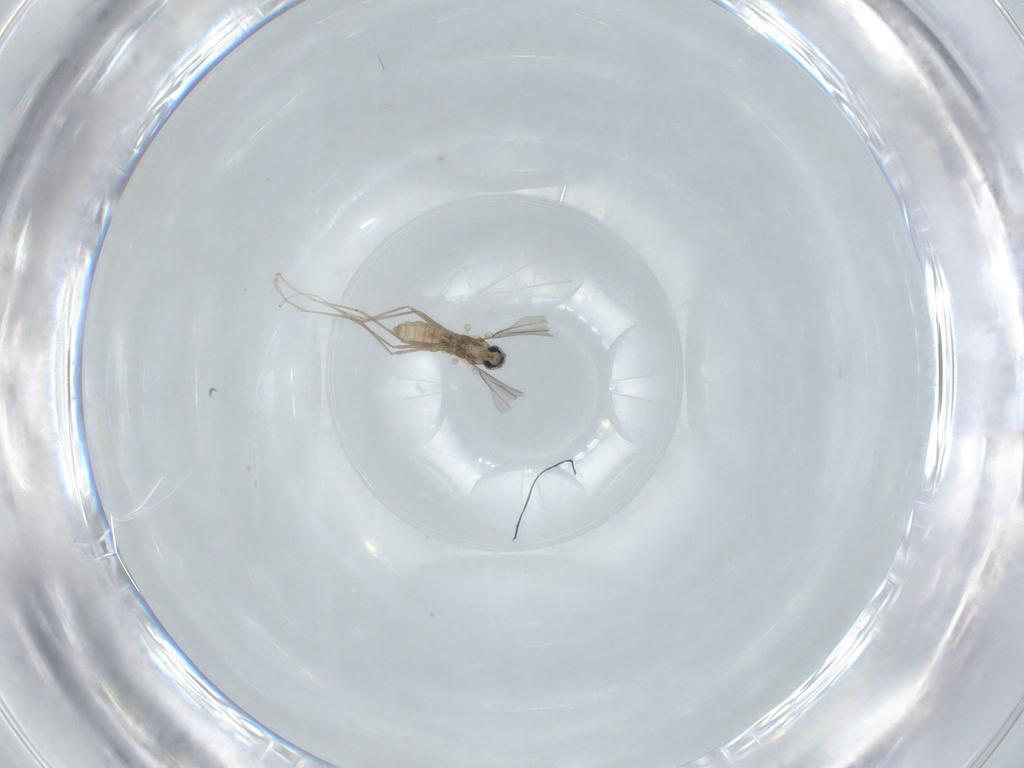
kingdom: Animalia
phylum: Arthropoda
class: Insecta
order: Diptera
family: Cecidomyiidae
